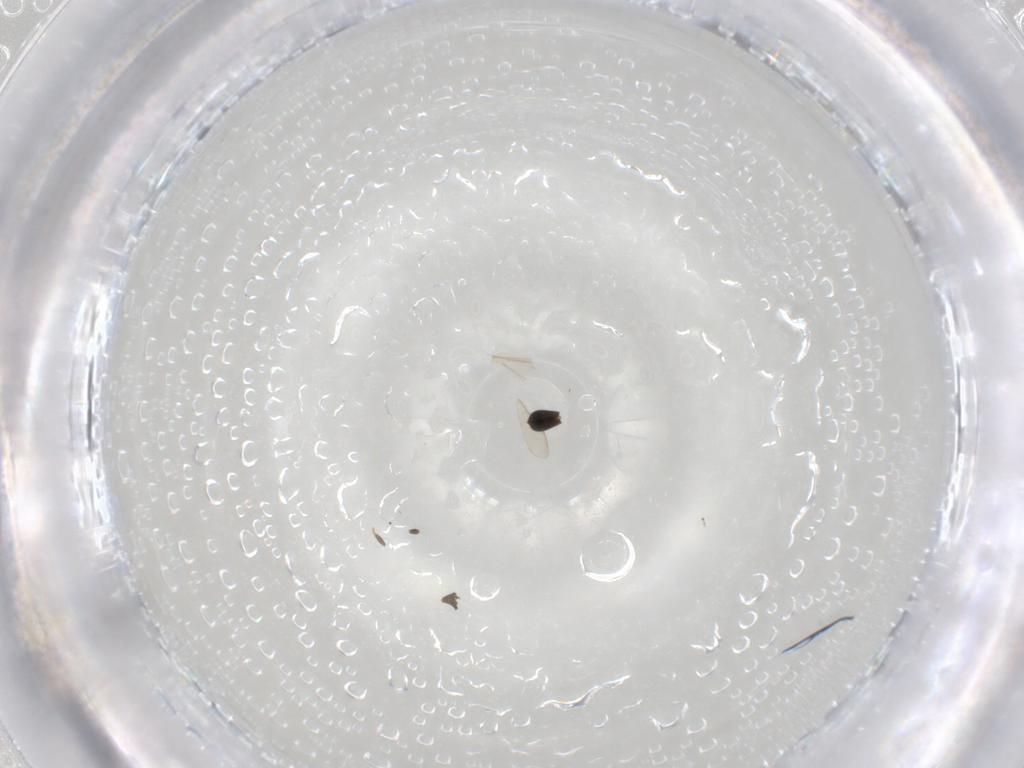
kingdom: Animalia
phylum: Arthropoda
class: Insecta
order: Hymenoptera
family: Scelionidae
